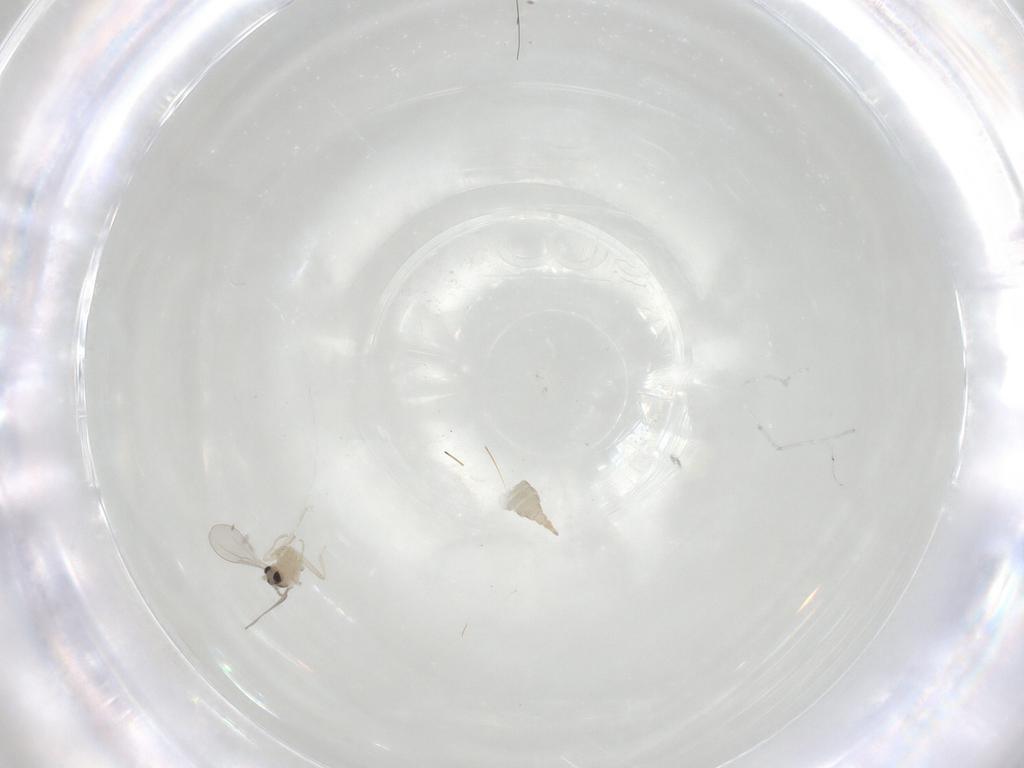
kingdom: Animalia
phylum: Arthropoda
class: Insecta
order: Diptera
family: Cecidomyiidae
